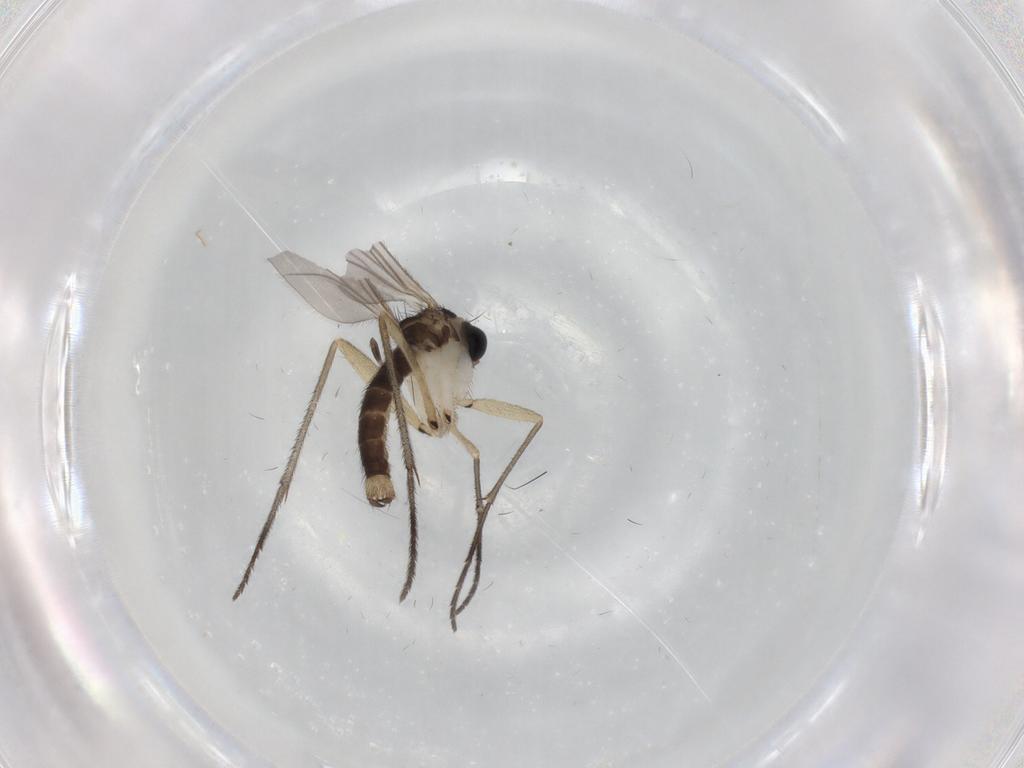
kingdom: Animalia
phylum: Arthropoda
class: Insecta
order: Diptera
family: Sciaridae
